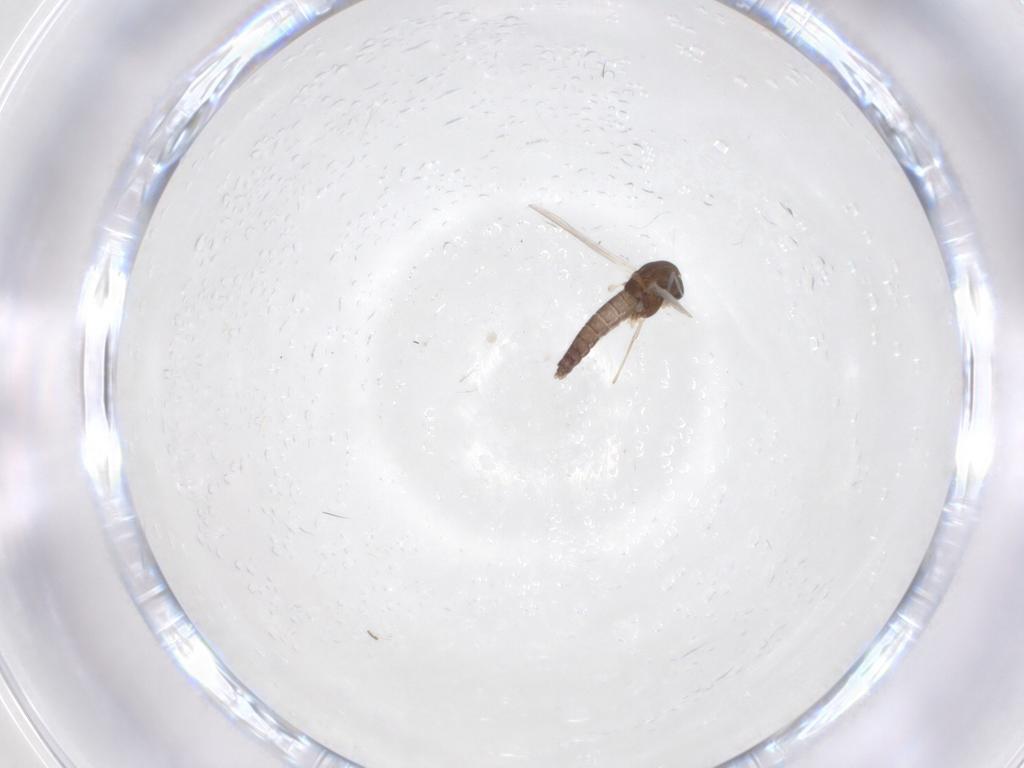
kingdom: Animalia
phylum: Arthropoda
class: Insecta
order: Diptera
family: Chironomidae
